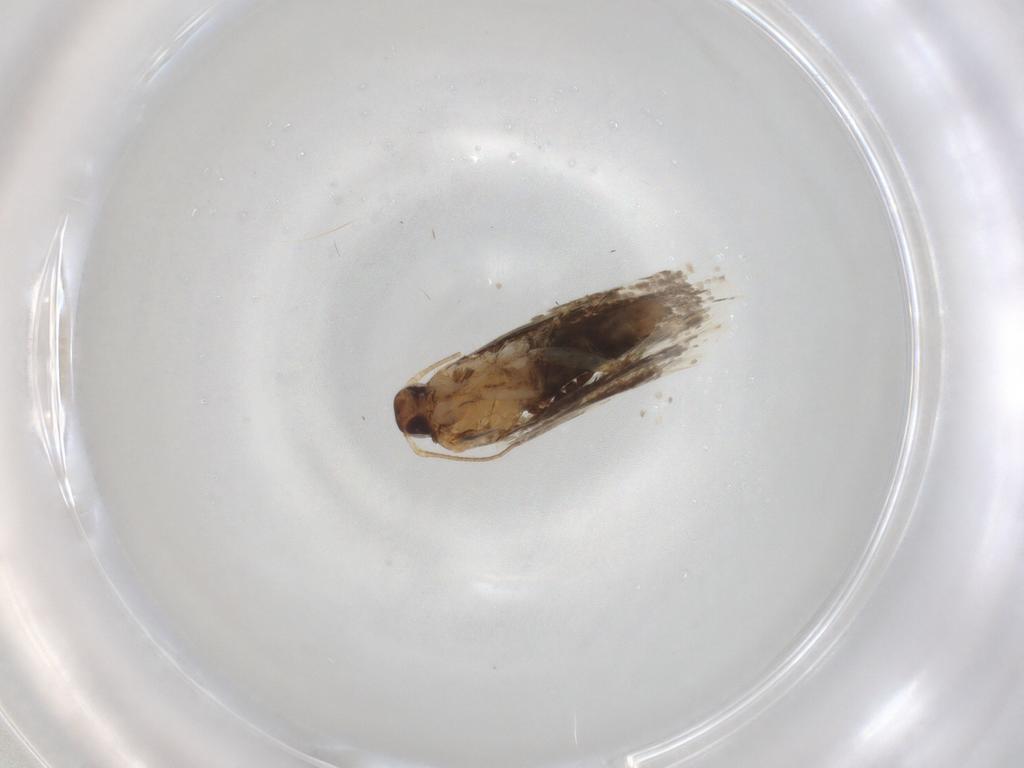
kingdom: Animalia
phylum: Arthropoda
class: Insecta
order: Lepidoptera
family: Oecophoridae
